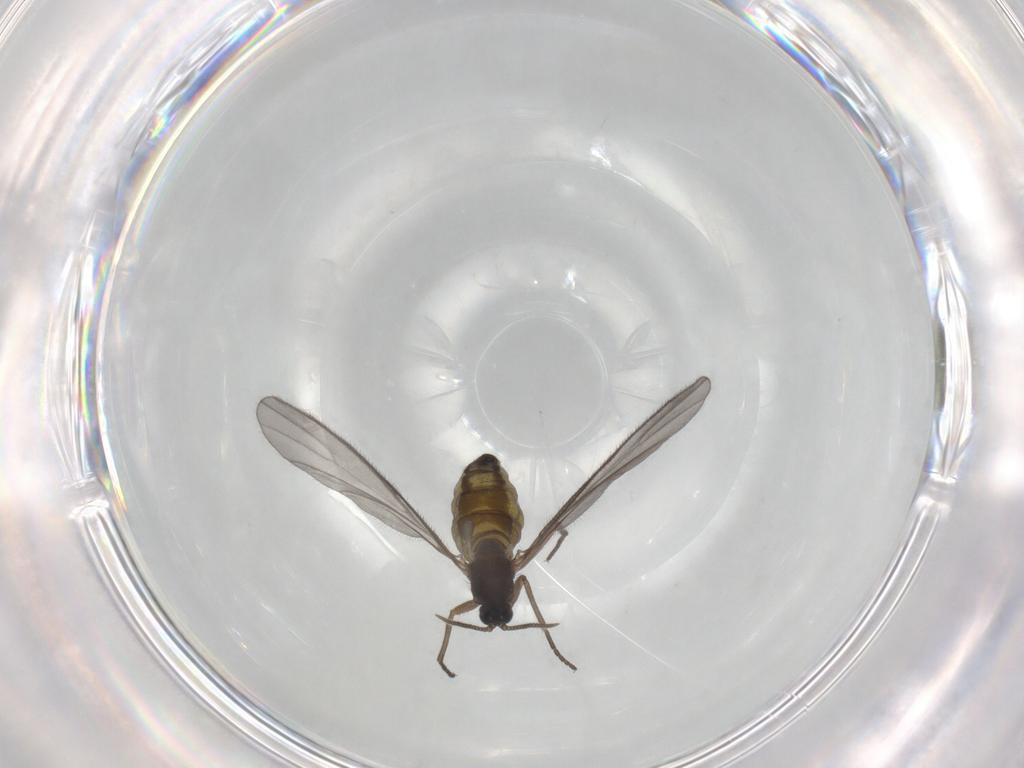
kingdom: Animalia
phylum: Arthropoda
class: Insecta
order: Diptera
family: Sciaridae
